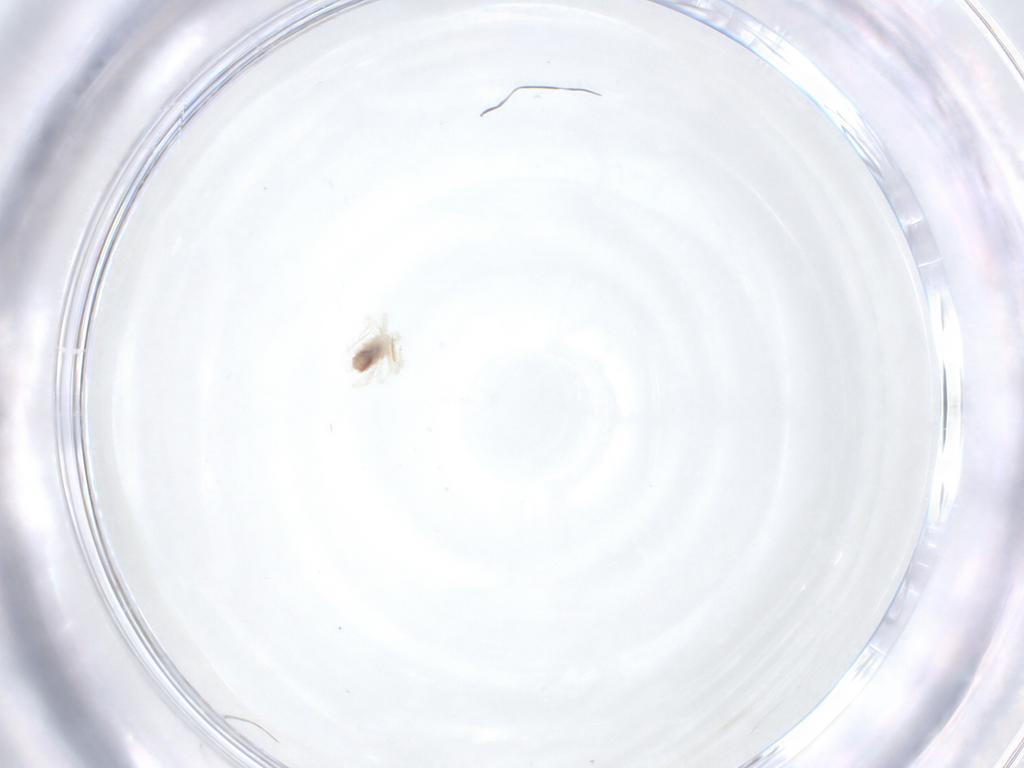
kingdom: Animalia
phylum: Arthropoda
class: Arachnida
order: Trombidiformes
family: Anystidae
